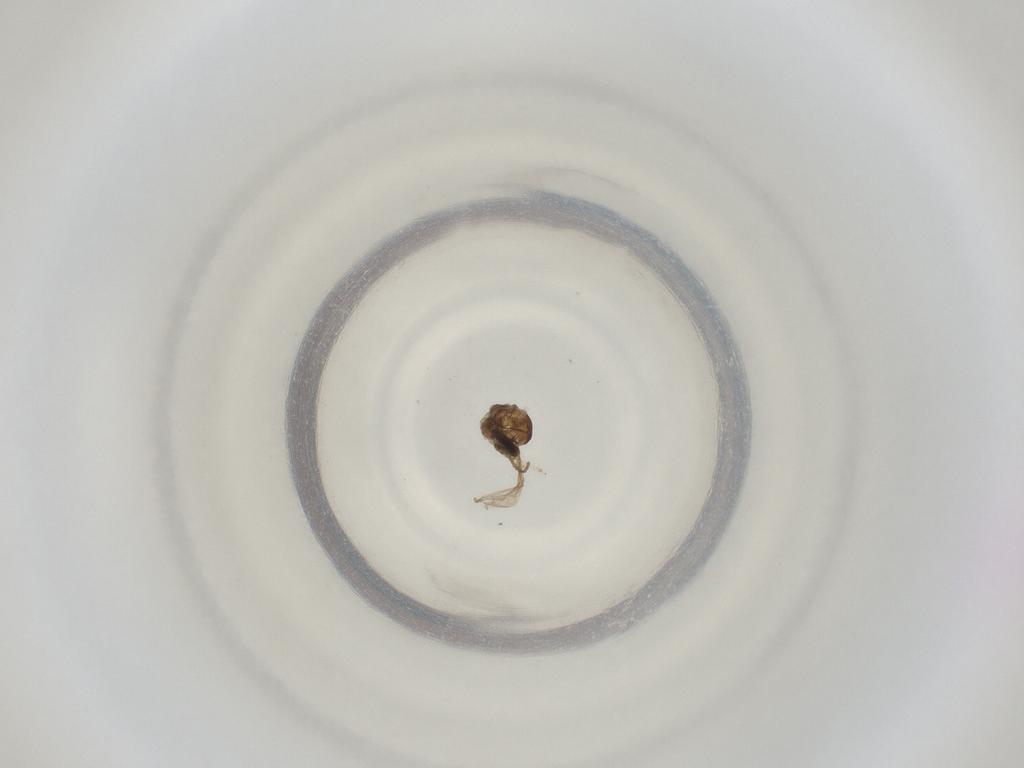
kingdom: Animalia
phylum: Arthropoda
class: Insecta
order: Diptera
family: Cecidomyiidae
